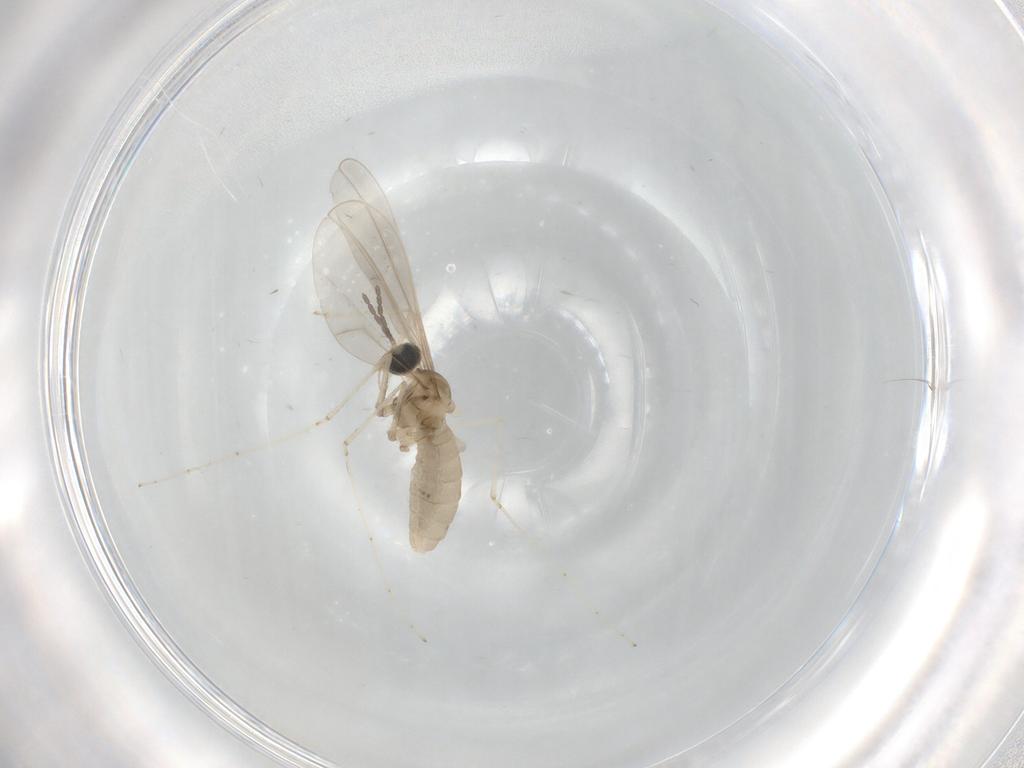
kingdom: Animalia
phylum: Arthropoda
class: Insecta
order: Diptera
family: Cecidomyiidae
